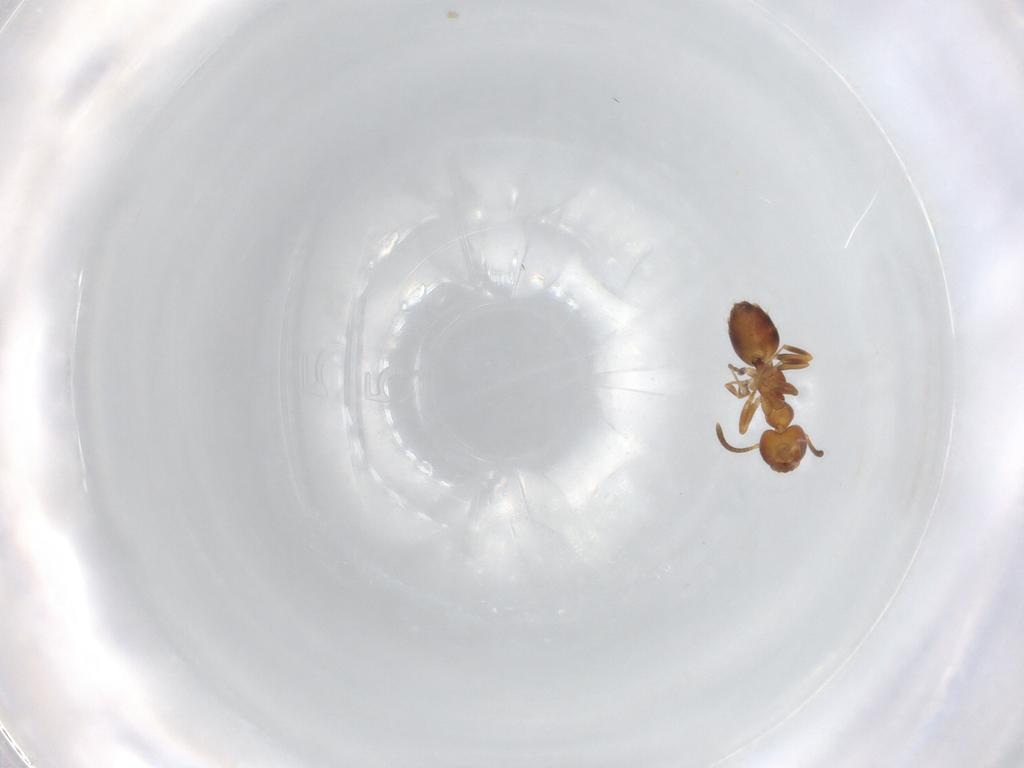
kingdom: Animalia
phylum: Arthropoda
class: Insecta
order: Hymenoptera
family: Formicidae
